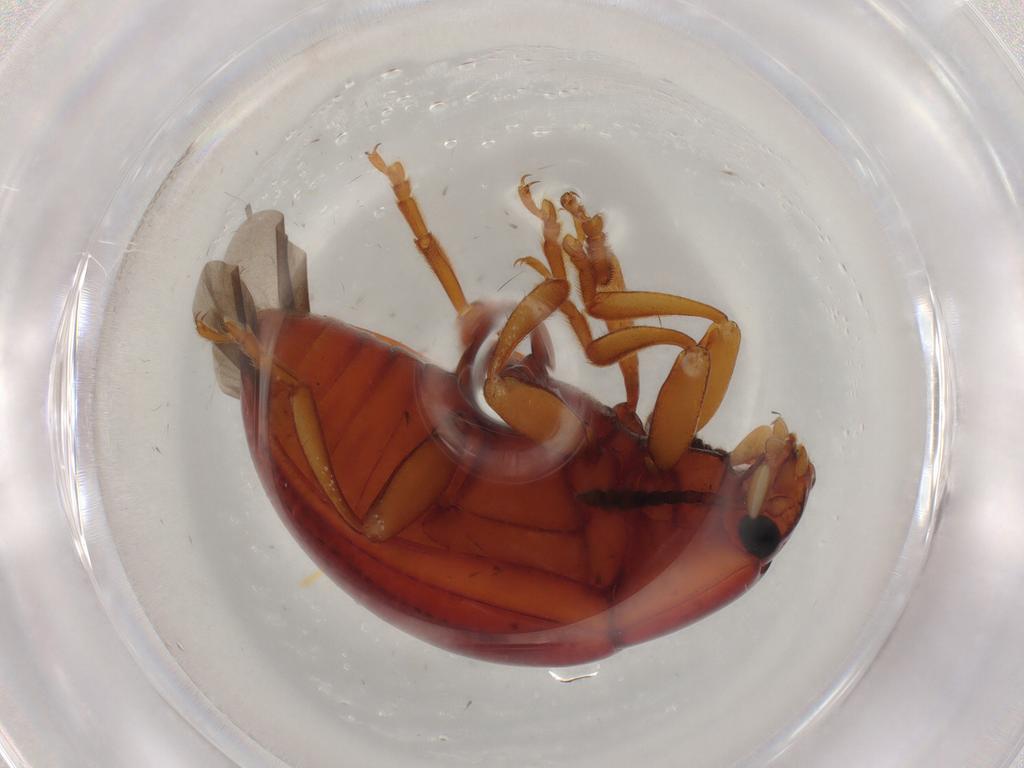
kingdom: Animalia
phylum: Arthropoda
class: Insecta
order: Coleoptera
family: Erotylidae
